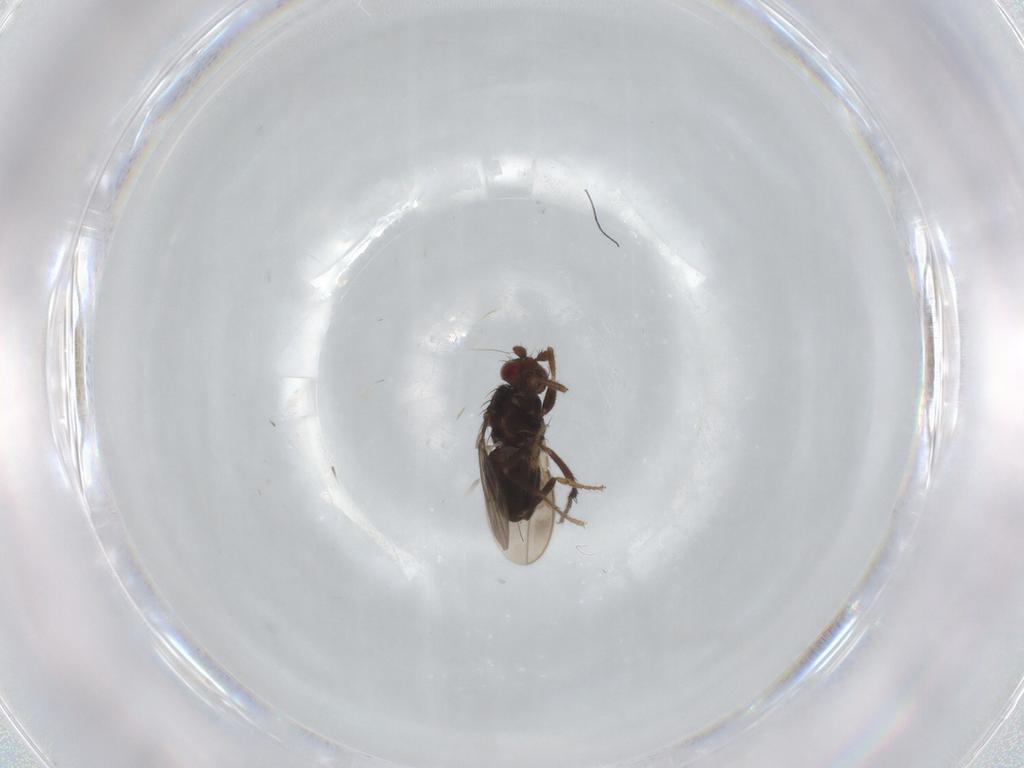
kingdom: Animalia
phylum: Arthropoda
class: Insecta
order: Diptera
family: Sphaeroceridae
